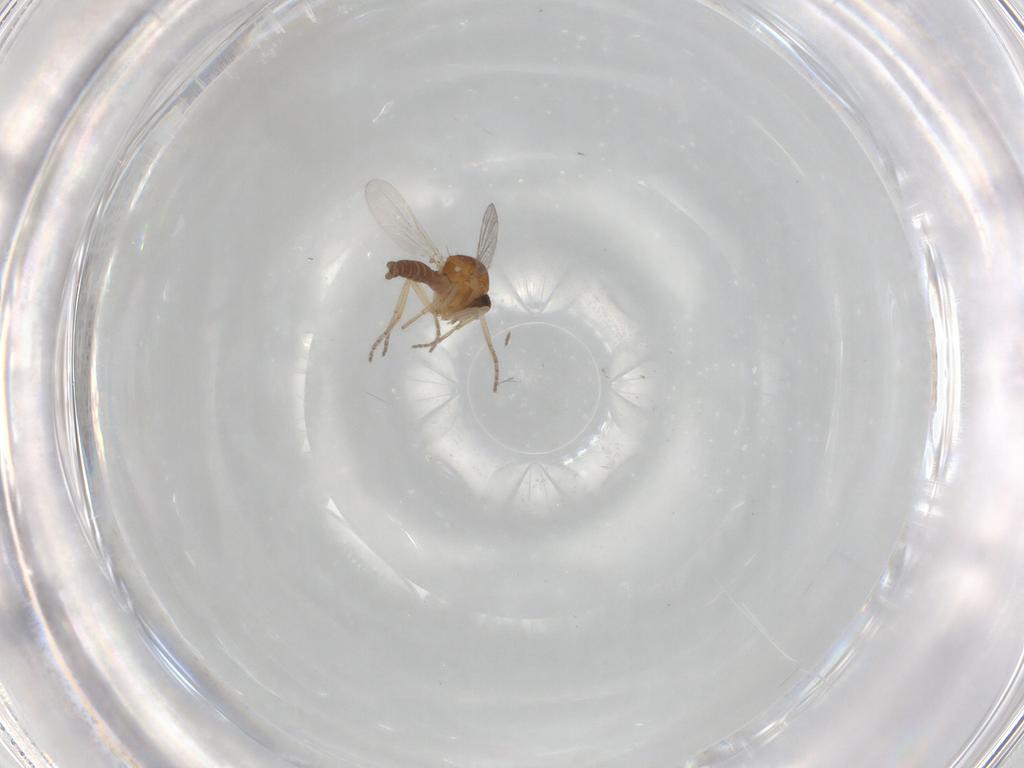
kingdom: Animalia
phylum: Arthropoda
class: Insecta
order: Diptera
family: Ceratopogonidae
